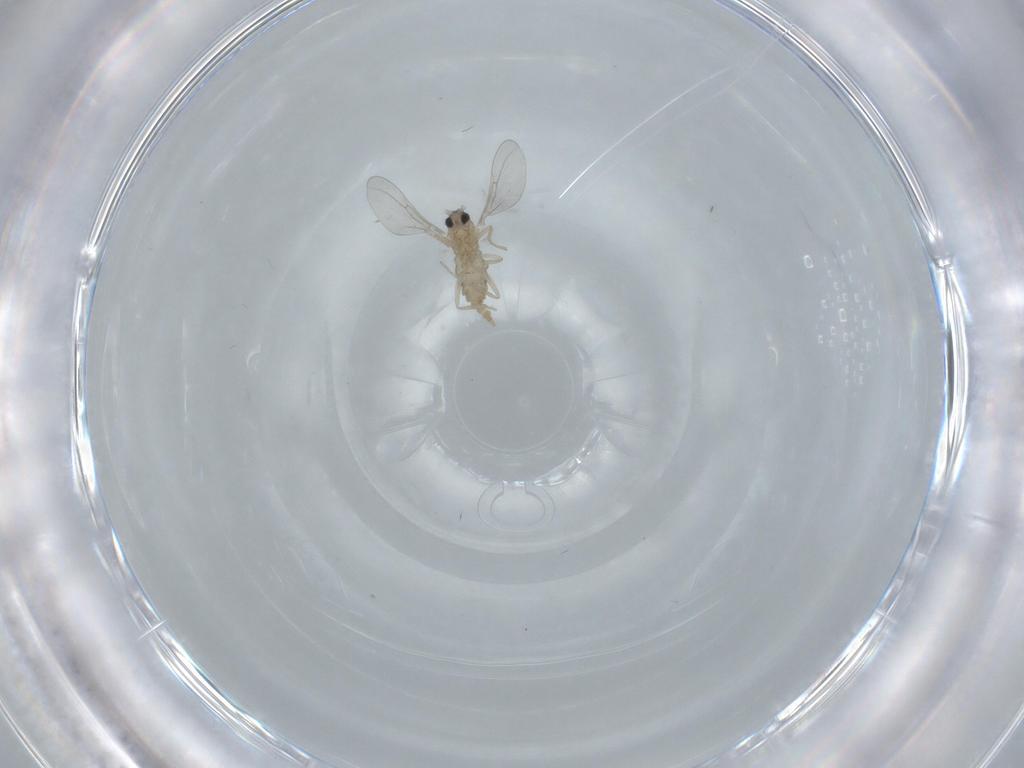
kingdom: Animalia
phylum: Arthropoda
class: Insecta
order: Diptera
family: Cecidomyiidae
